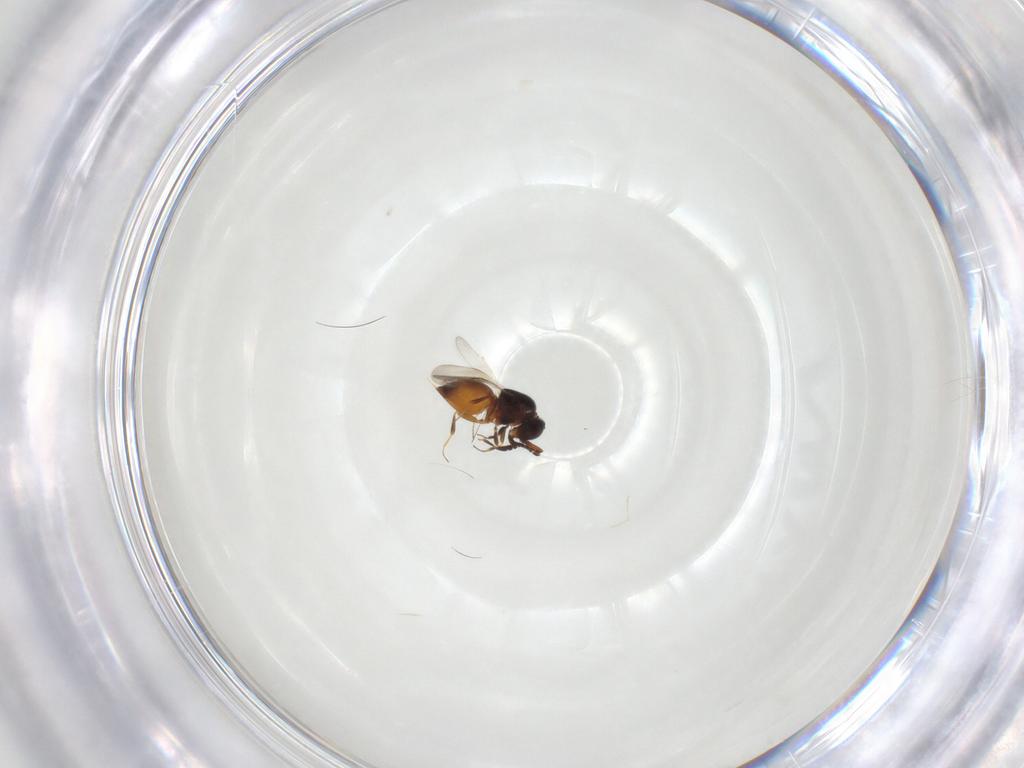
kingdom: Animalia
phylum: Arthropoda
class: Insecta
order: Hymenoptera
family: Ceraphronidae
